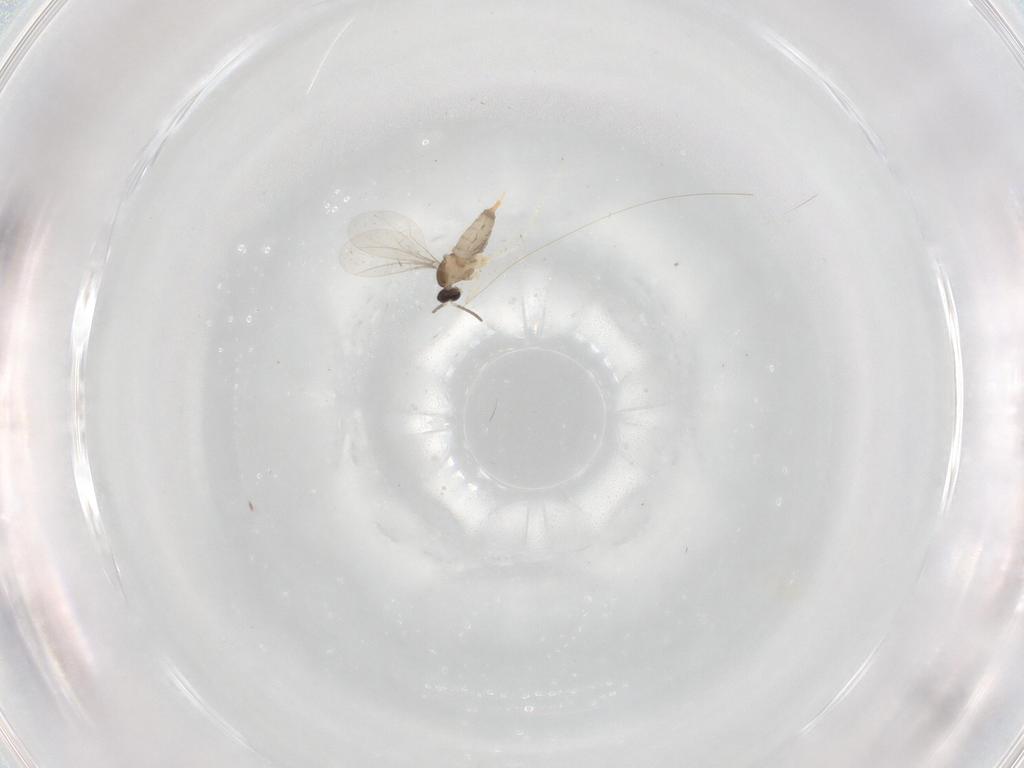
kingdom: Animalia
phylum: Arthropoda
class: Insecta
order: Diptera
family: Cecidomyiidae
